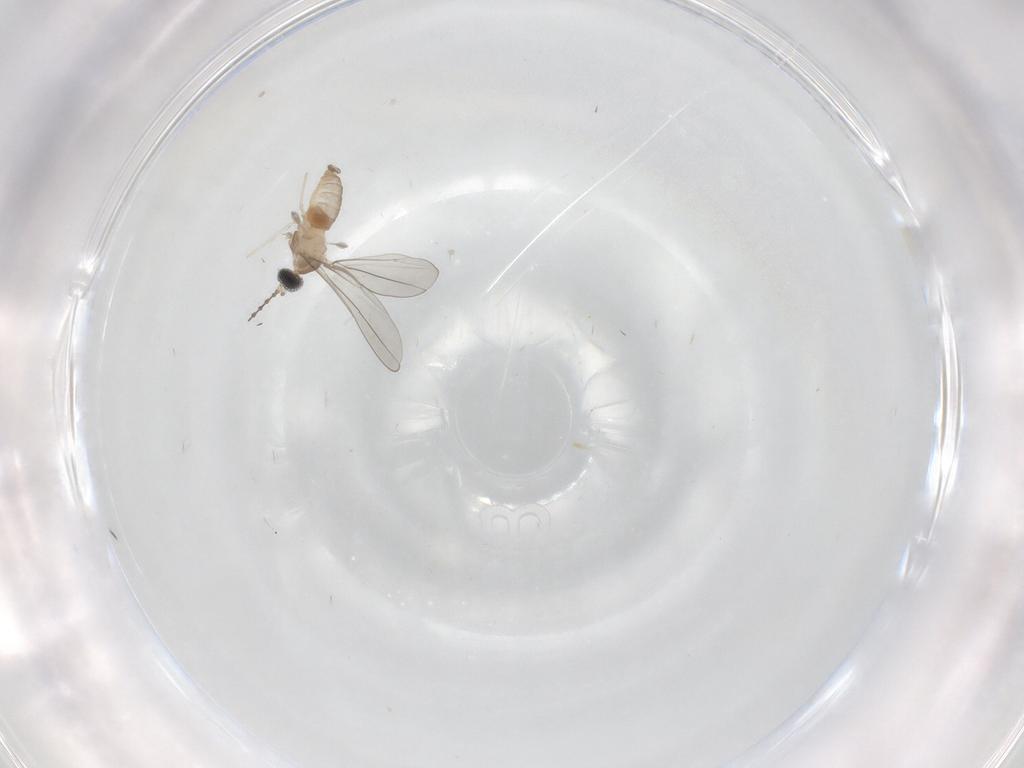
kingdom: Animalia
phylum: Arthropoda
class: Insecta
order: Diptera
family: Cecidomyiidae
